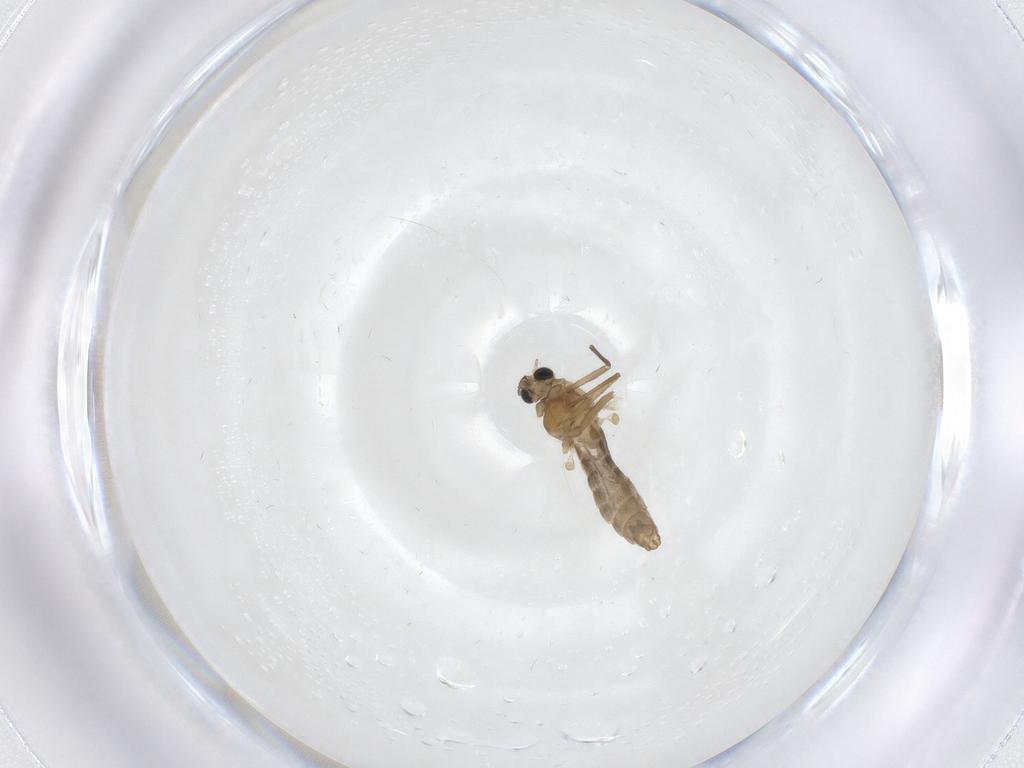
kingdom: Animalia
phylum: Arthropoda
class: Insecta
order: Diptera
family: Chironomidae
